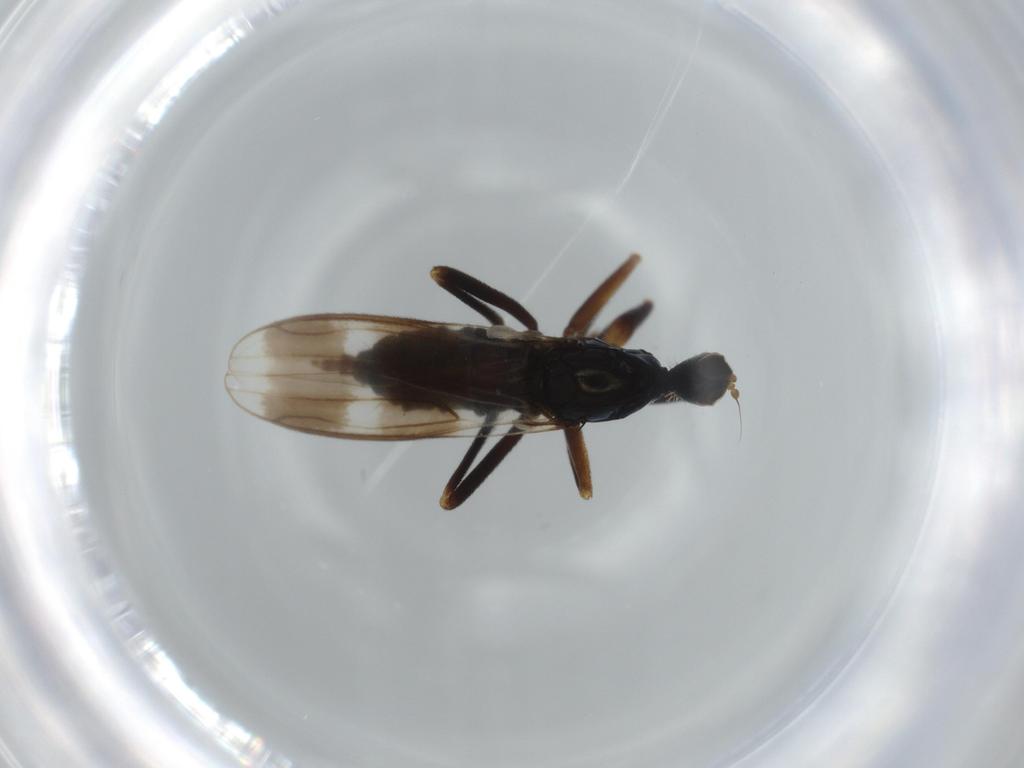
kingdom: Animalia
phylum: Arthropoda
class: Insecta
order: Diptera
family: Hybotidae
